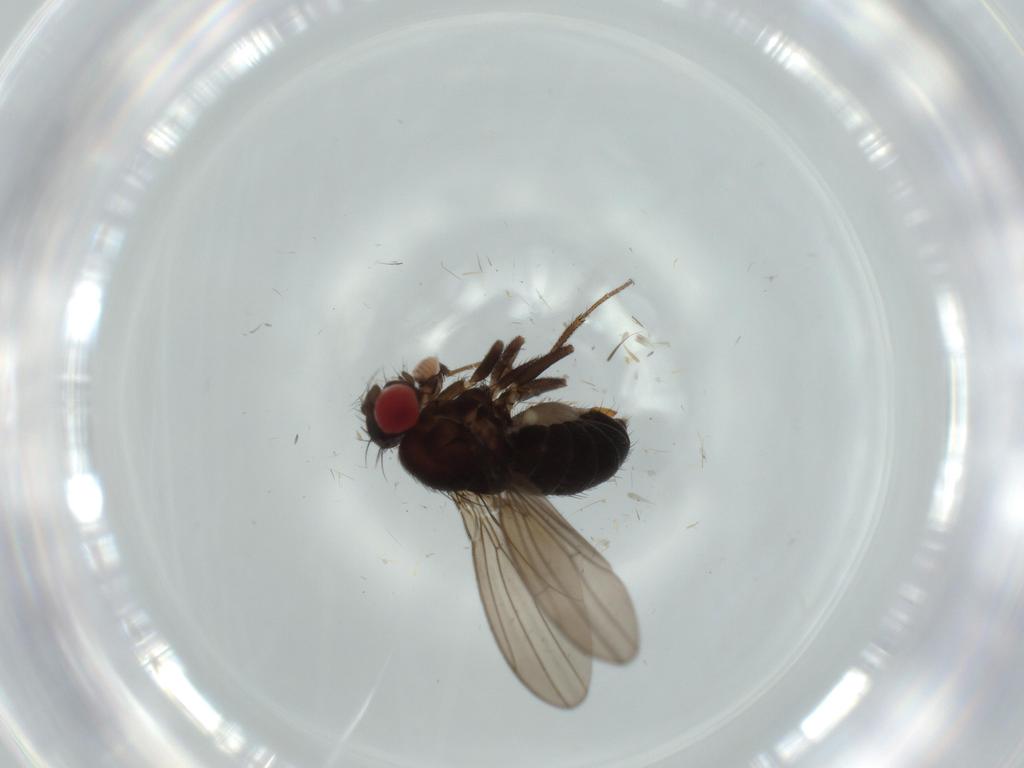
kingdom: Animalia
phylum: Arthropoda
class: Insecta
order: Diptera
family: Drosophilidae
